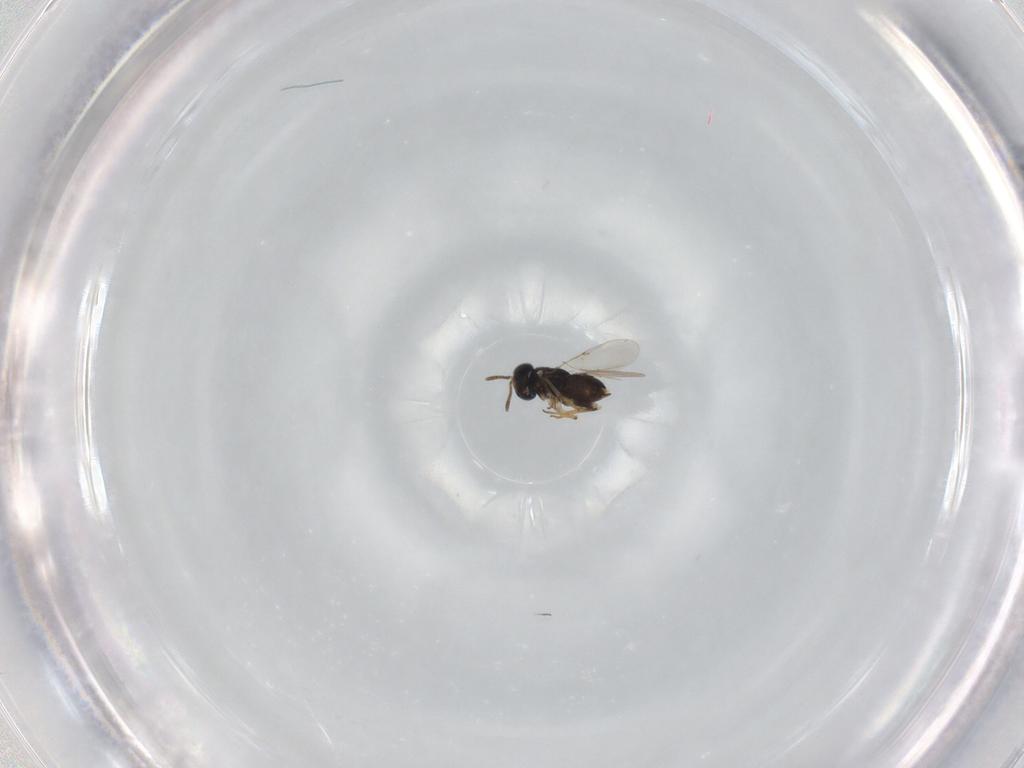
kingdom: Animalia
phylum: Arthropoda
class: Insecta
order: Hymenoptera
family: Encyrtidae
